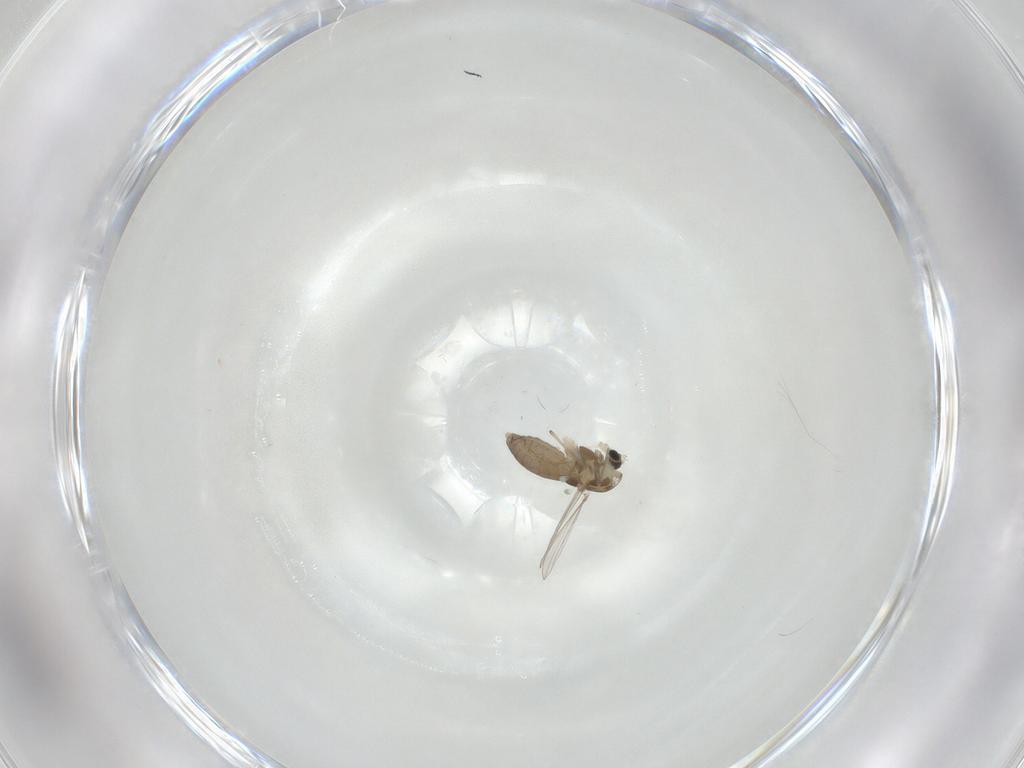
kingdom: Animalia
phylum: Arthropoda
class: Insecta
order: Diptera
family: Chironomidae
